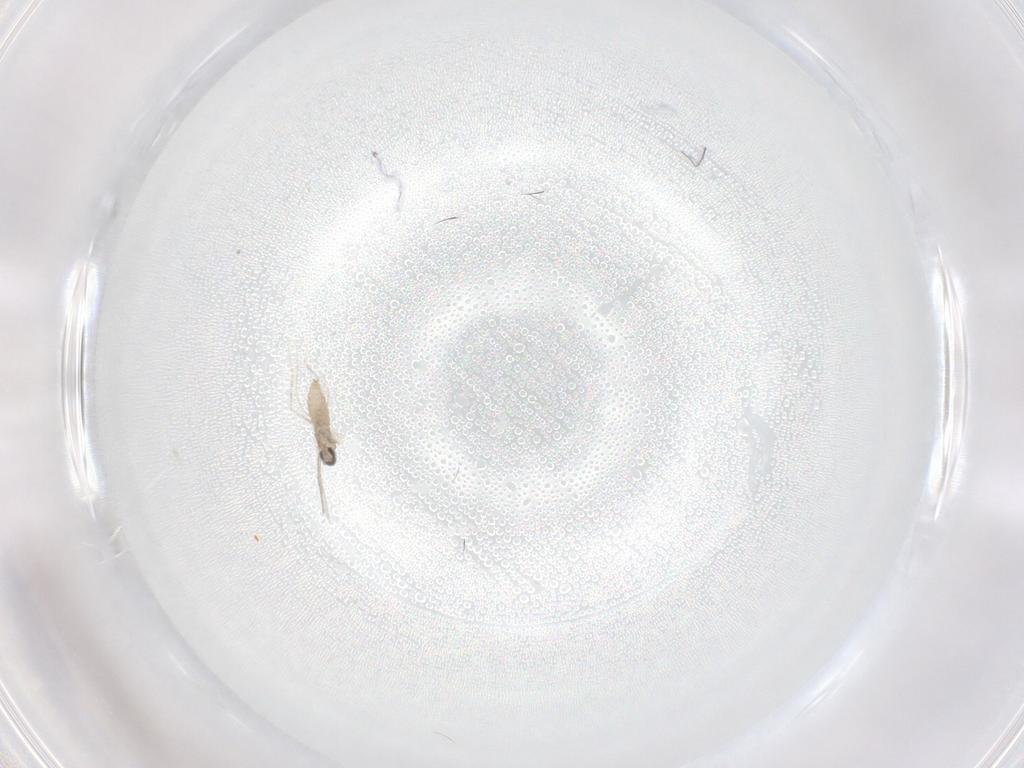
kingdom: Animalia
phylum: Arthropoda
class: Insecta
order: Diptera
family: Cecidomyiidae
